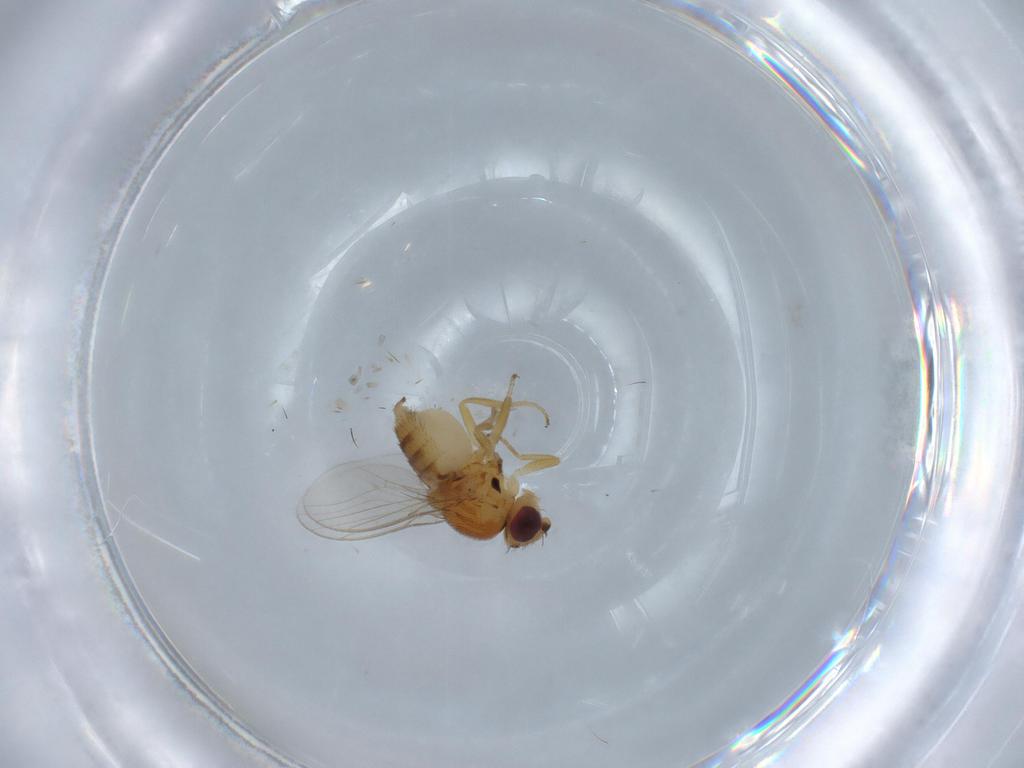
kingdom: Animalia
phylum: Arthropoda
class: Insecta
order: Diptera
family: Chloropidae
